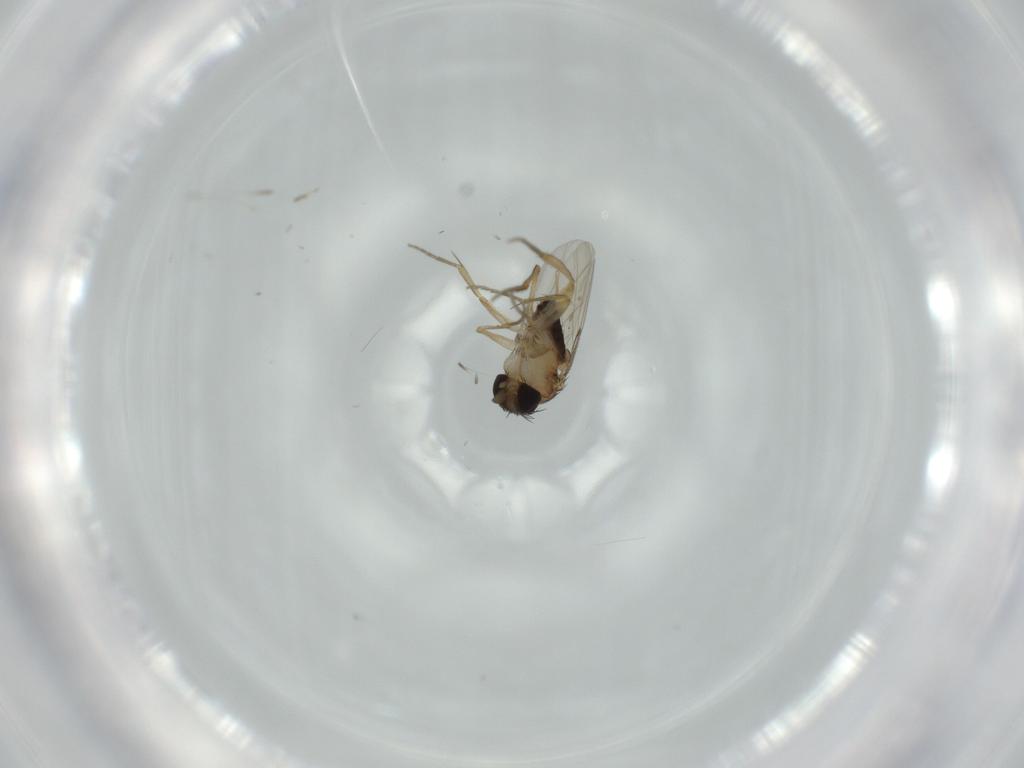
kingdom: Animalia
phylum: Arthropoda
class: Insecta
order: Diptera
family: Phoridae
